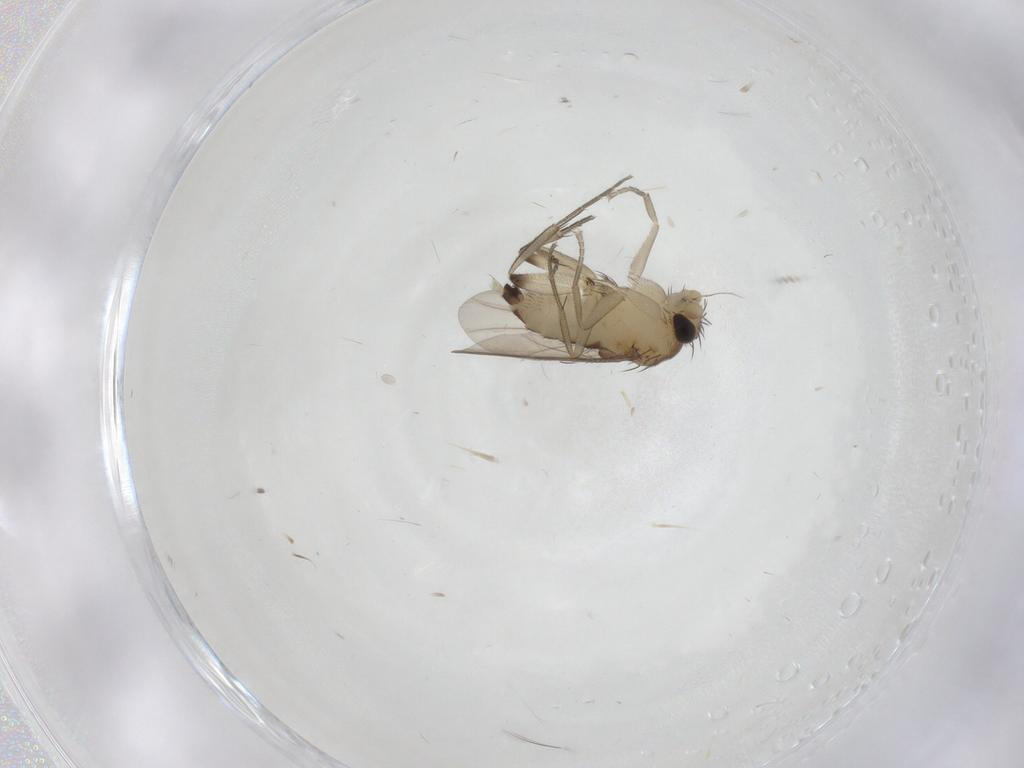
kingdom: Animalia
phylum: Arthropoda
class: Insecta
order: Diptera
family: Phoridae
